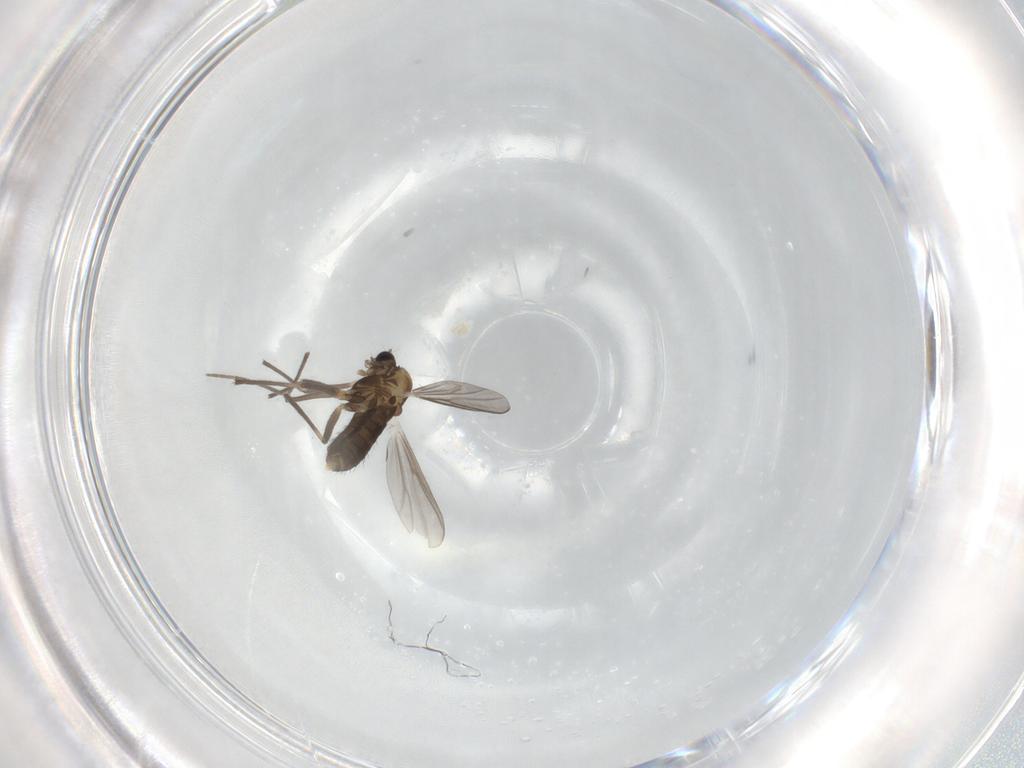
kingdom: Animalia
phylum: Arthropoda
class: Insecta
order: Diptera
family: Chironomidae
